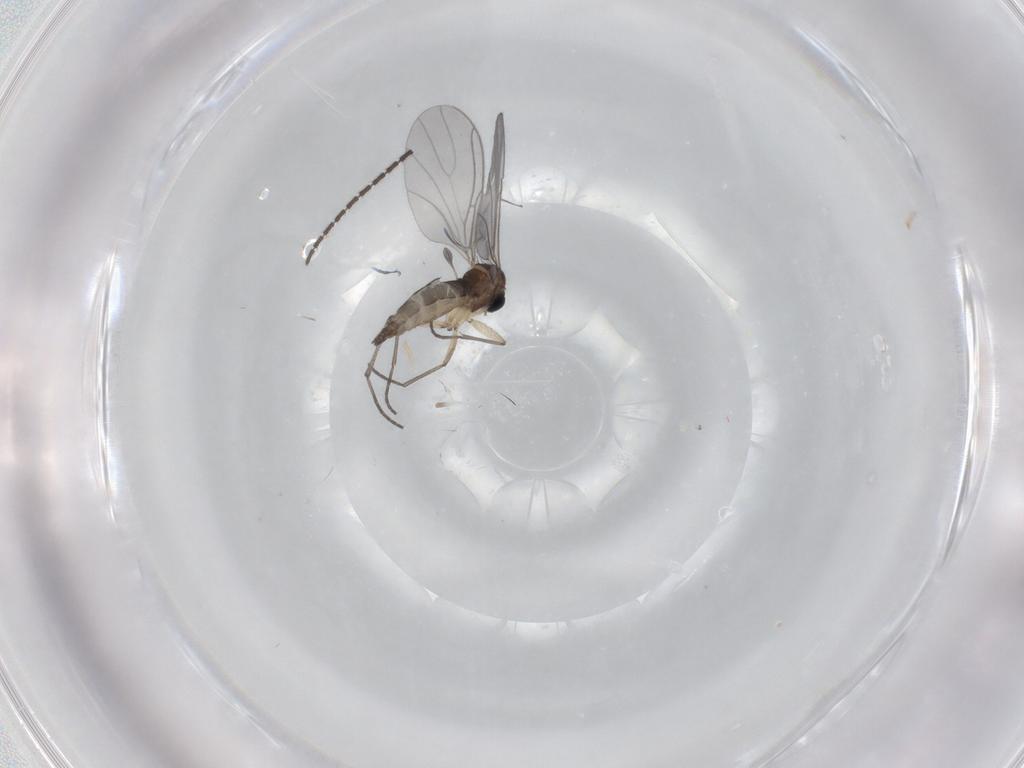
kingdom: Animalia
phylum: Arthropoda
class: Insecta
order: Diptera
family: Sciaridae
